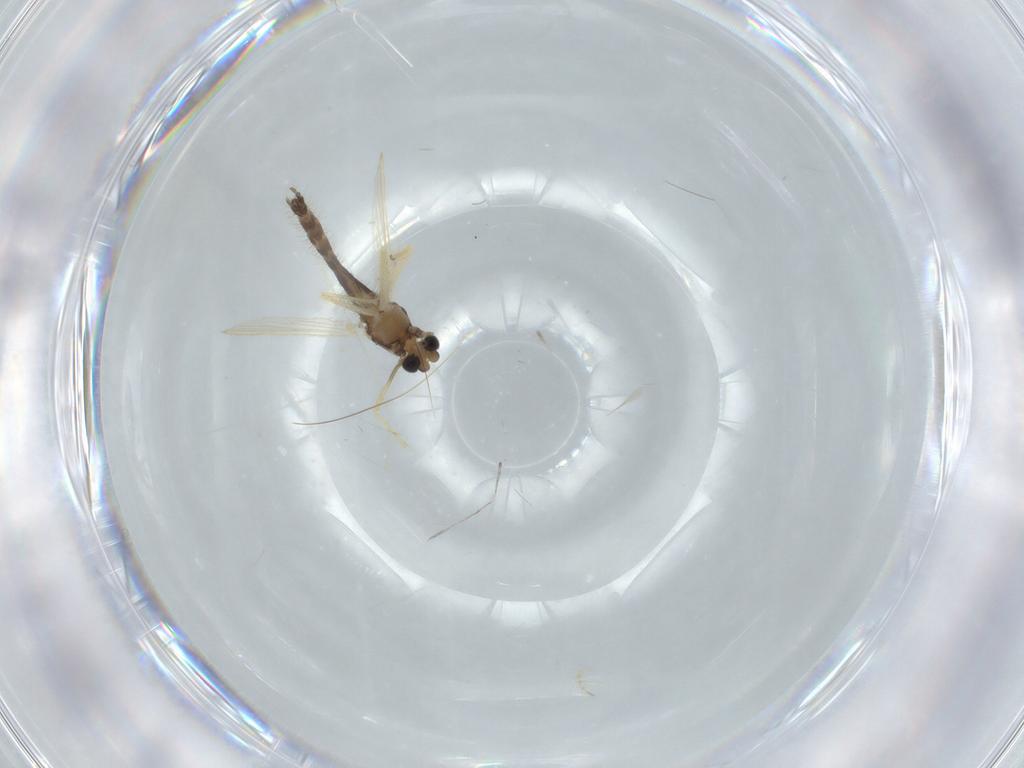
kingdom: Animalia
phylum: Arthropoda
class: Insecta
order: Diptera
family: Chironomidae
